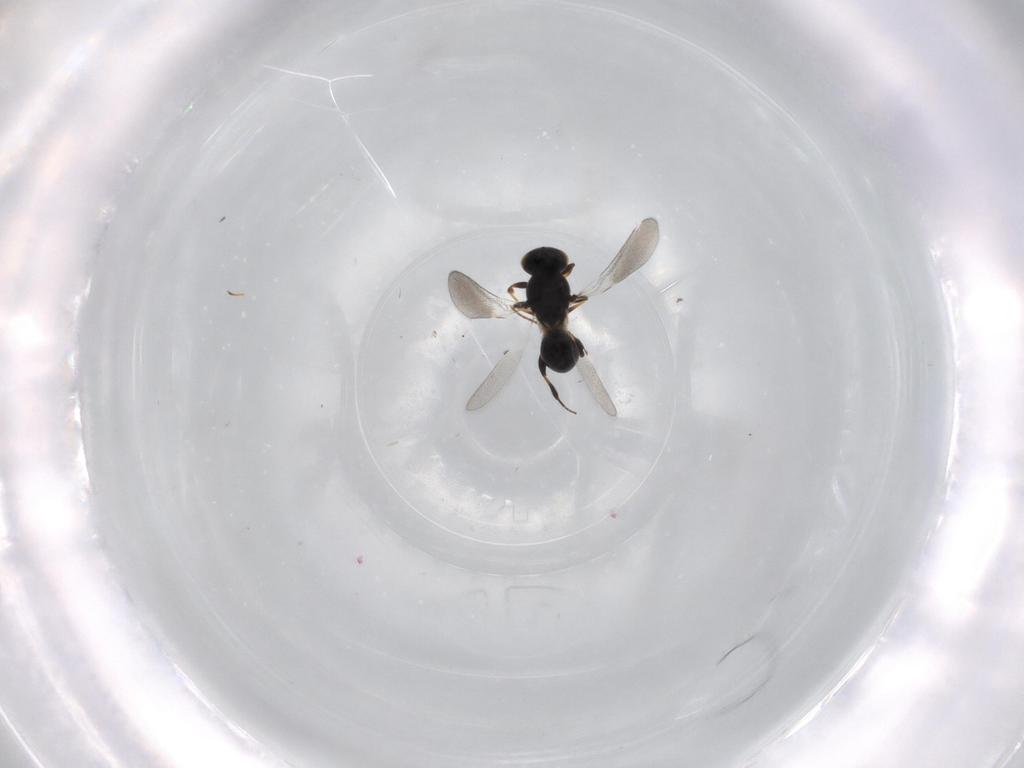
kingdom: Animalia
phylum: Arthropoda
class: Insecta
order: Hymenoptera
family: Platygastridae
